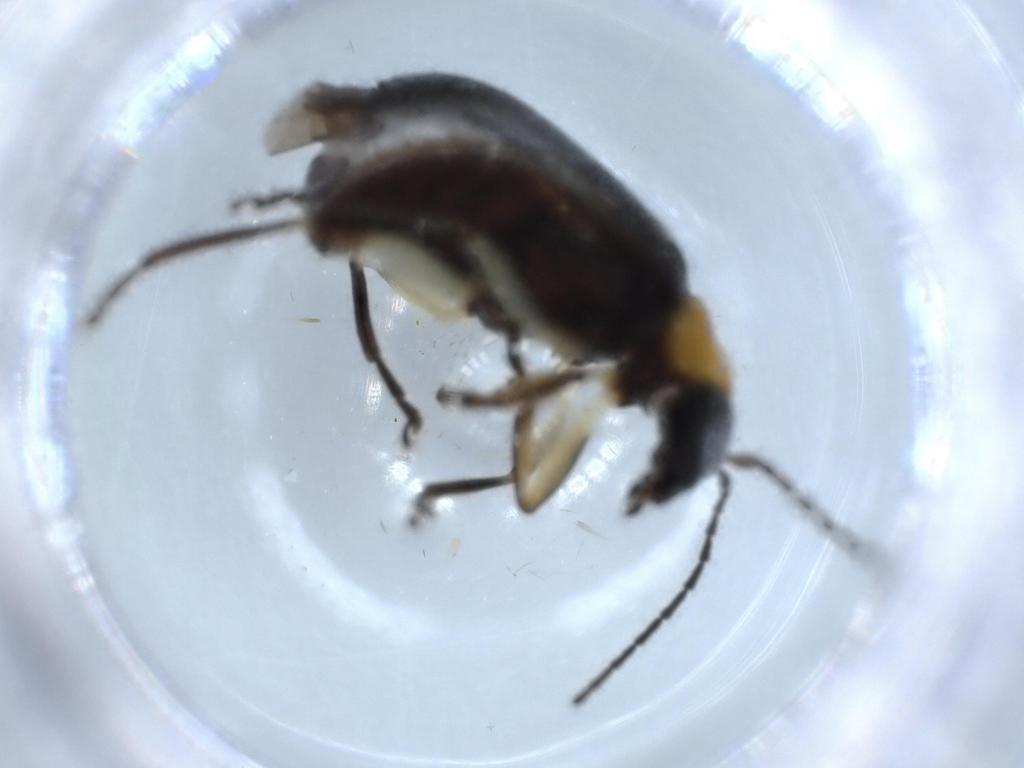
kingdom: Animalia
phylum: Arthropoda
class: Insecta
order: Coleoptera
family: Coccinellidae
